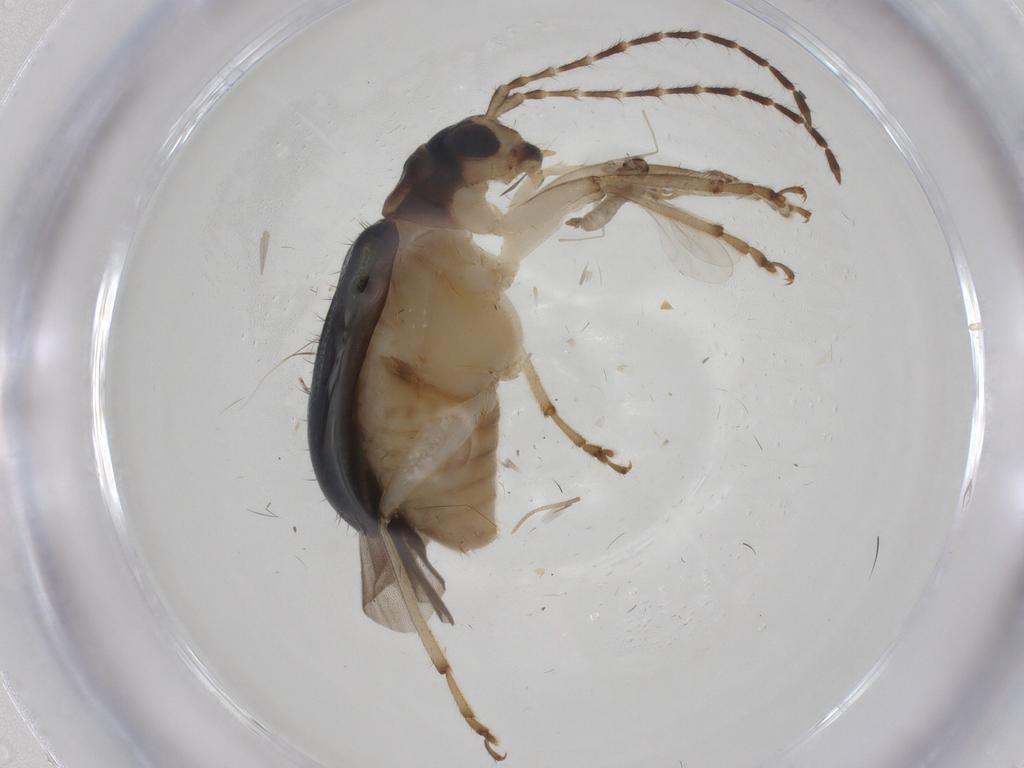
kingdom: Animalia
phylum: Arthropoda
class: Insecta
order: Coleoptera
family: Chrysomelidae
